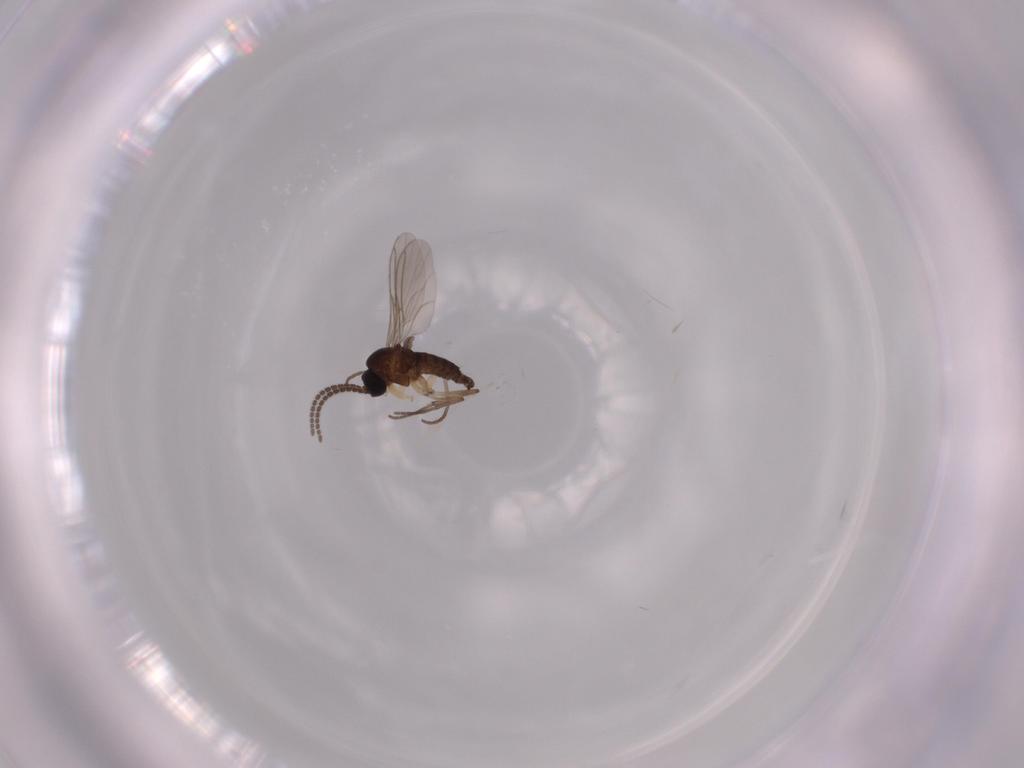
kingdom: Animalia
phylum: Arthropoda
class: Insecta
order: Diptera
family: Sciaridae
